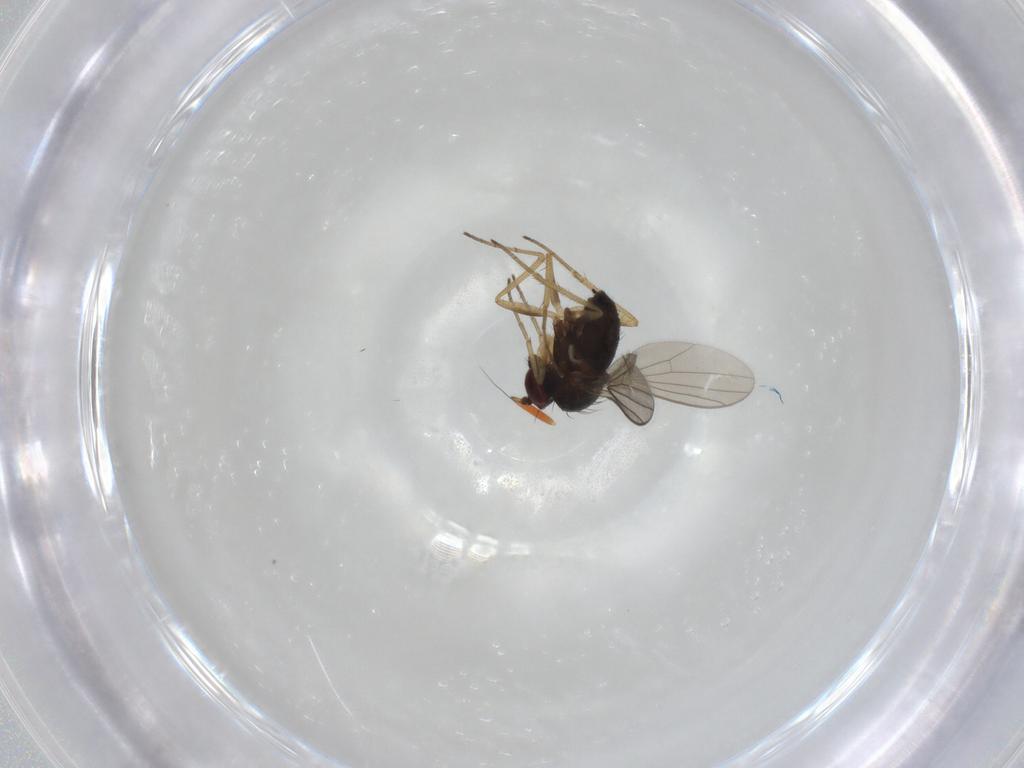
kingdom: Animalia
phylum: Arthropoda
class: Insecta
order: Diptera
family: Dolichopodidae
